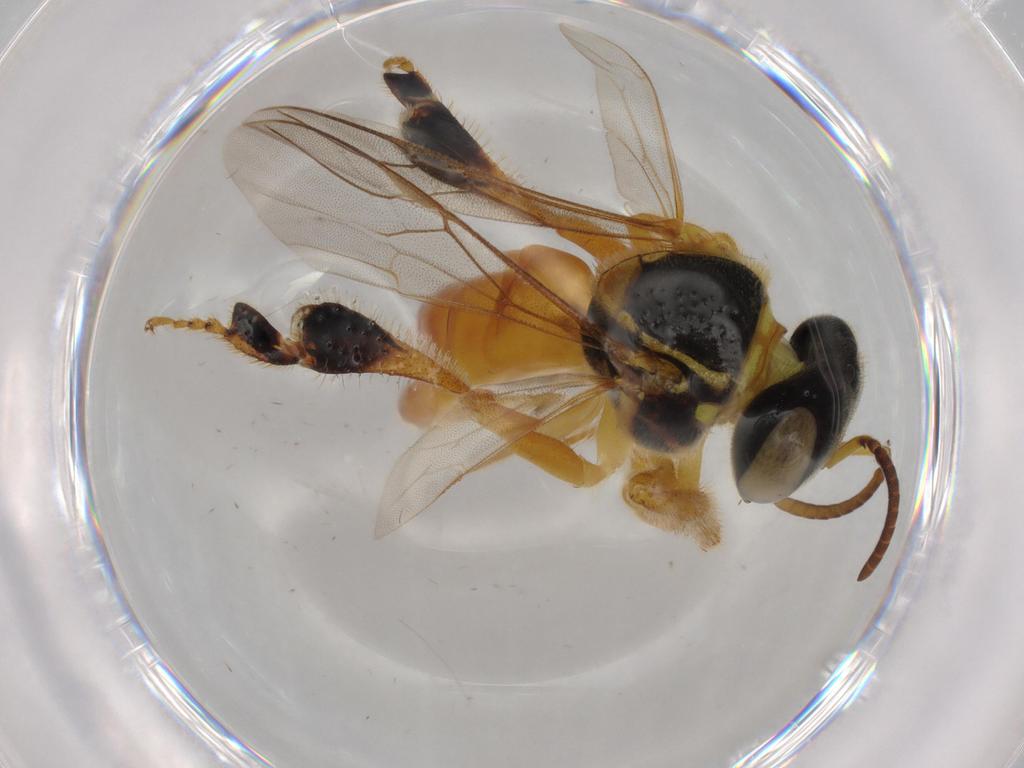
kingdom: Animalia
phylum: Arthropoda
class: Insecta
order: Hymenoptera
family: Apidae
